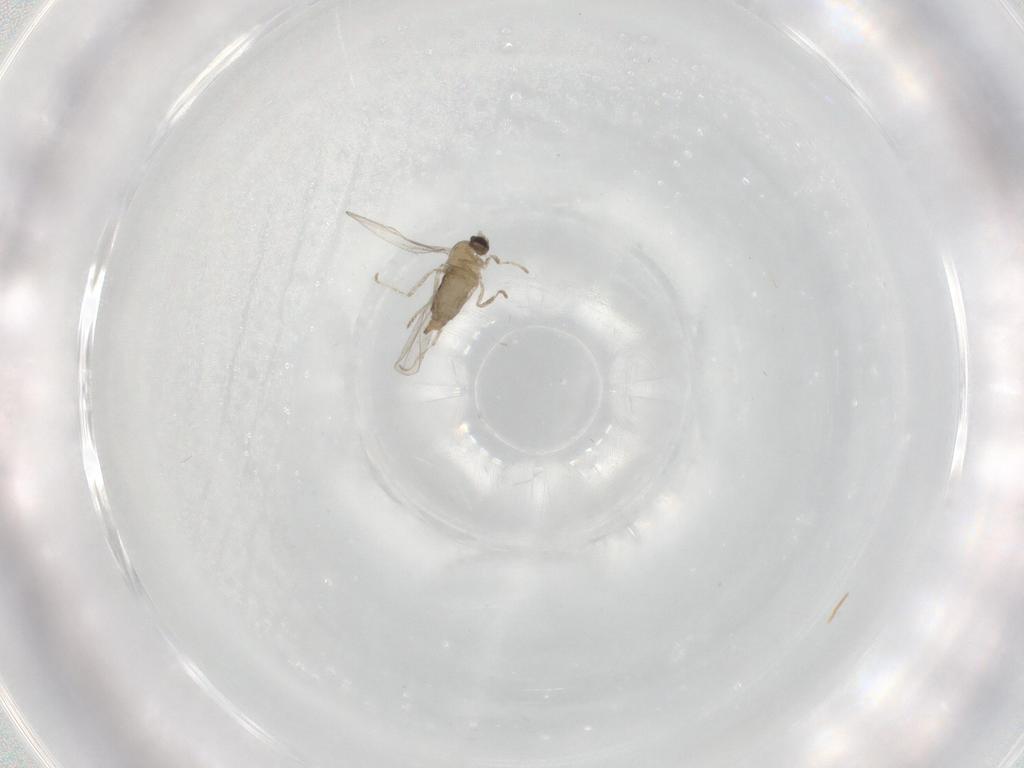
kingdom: Animalia
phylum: Arthropoda
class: Insecta
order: Diptera
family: Cecidomyiidae
